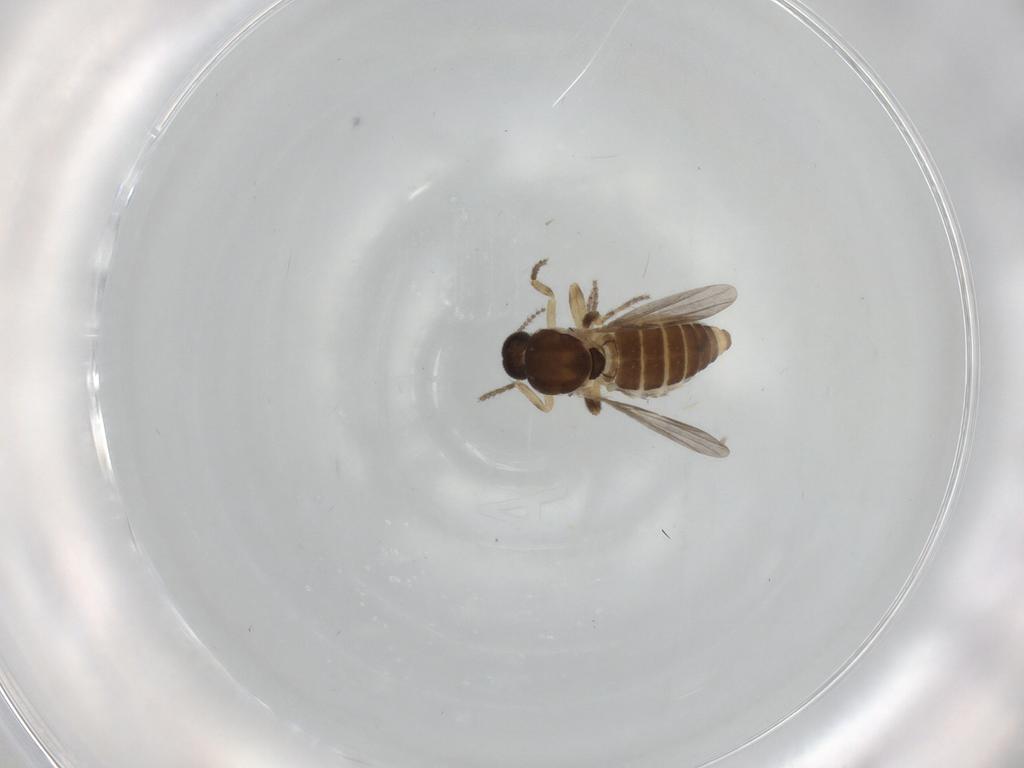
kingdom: Animalia
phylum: Arthropoda
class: Insecta
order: Diptera
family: Ceratopogonidae
